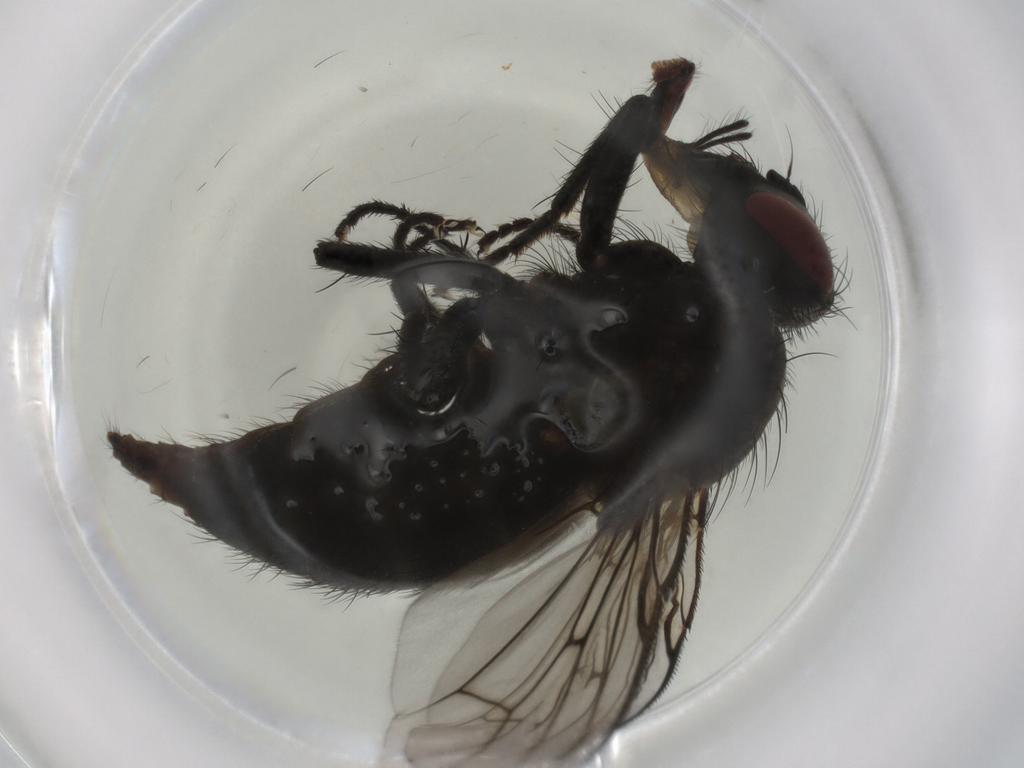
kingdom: Animalia
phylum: Arthropoda
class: Insecta
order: Diptera
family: Muscidae
